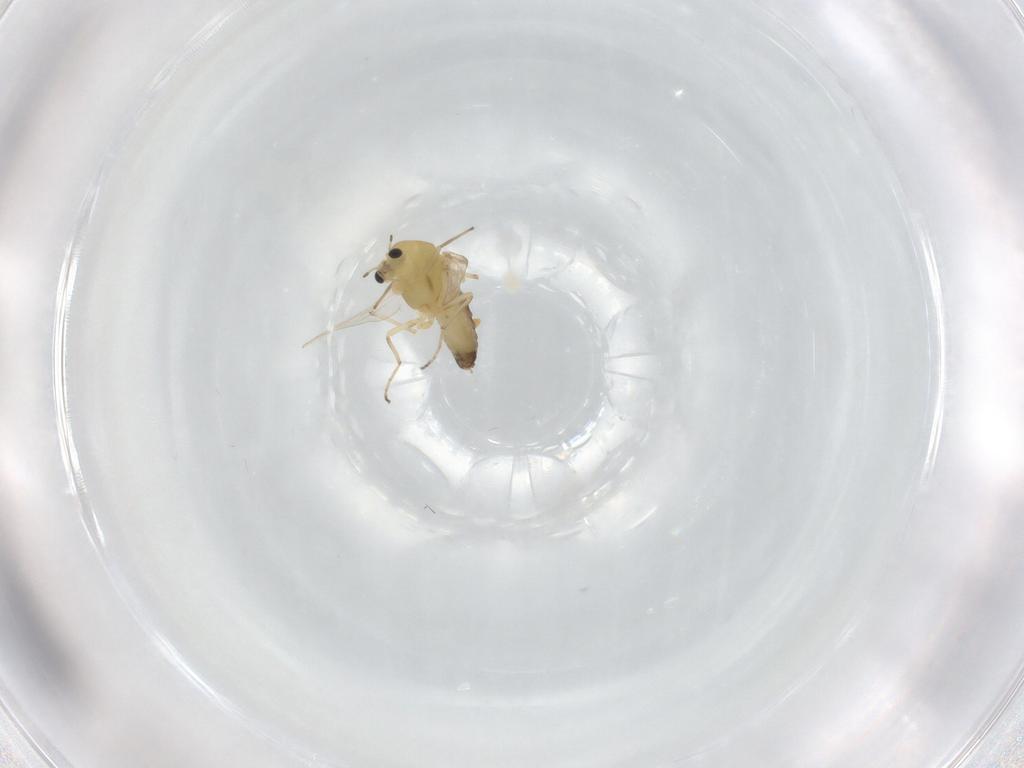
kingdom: Animalia
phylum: Arthropoda
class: Insecta
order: Diptera
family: Chironomidae
